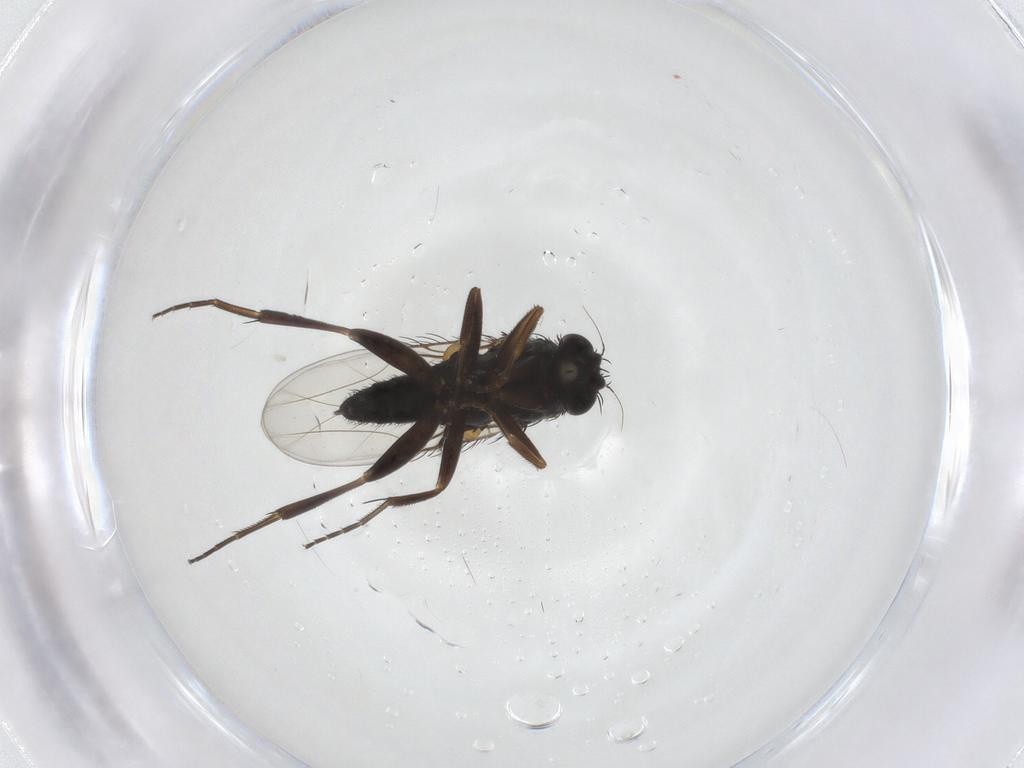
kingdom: Animalia
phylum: Arthropoda
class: Insecta
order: Diptera
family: Phoridae
